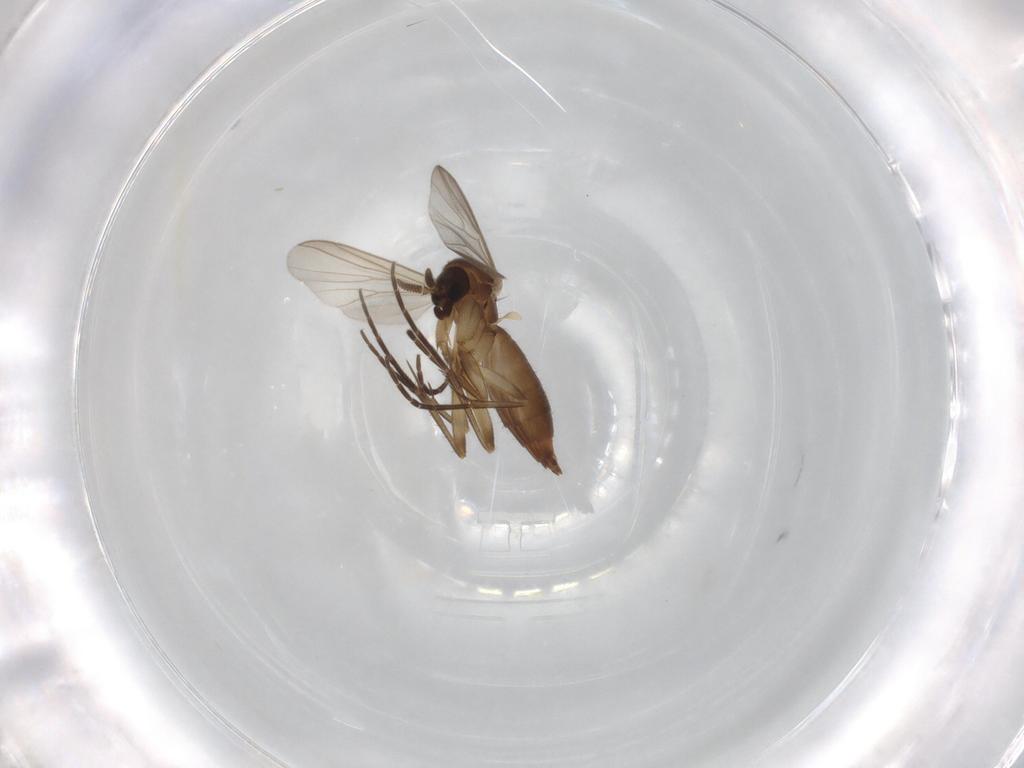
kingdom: Animalia
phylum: Arthropoda
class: Insecta
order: Diptera
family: Mycetophilidae
